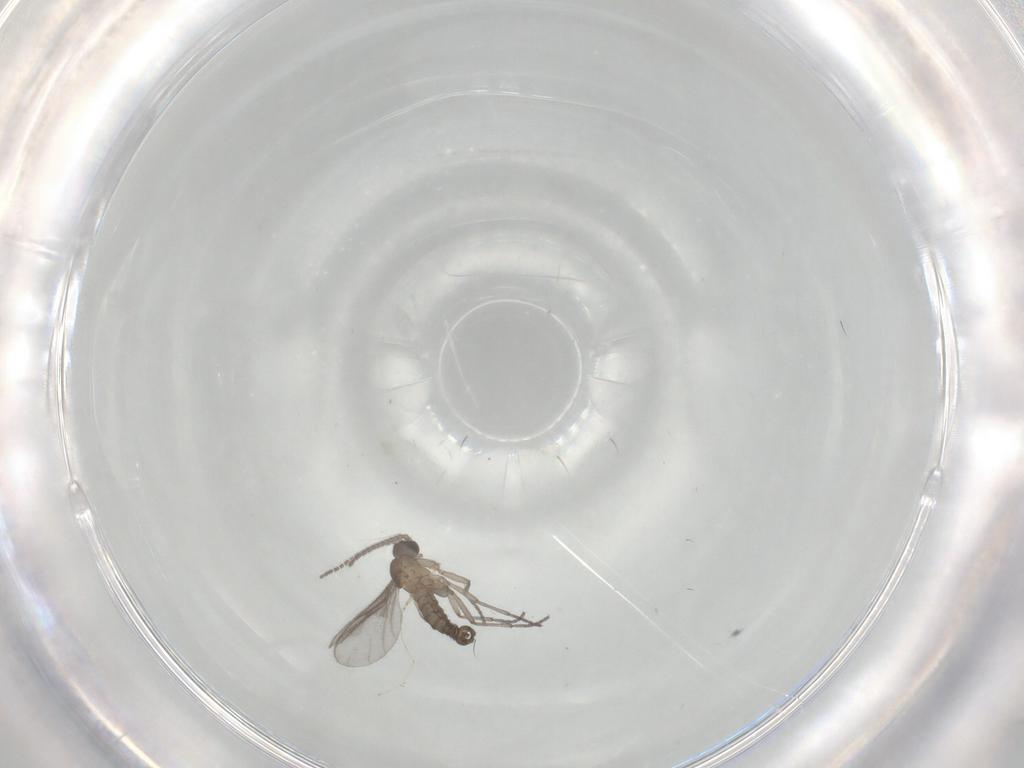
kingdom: Animalia
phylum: Arthropoda
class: Insecta
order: Diptera
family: Sciaridae
